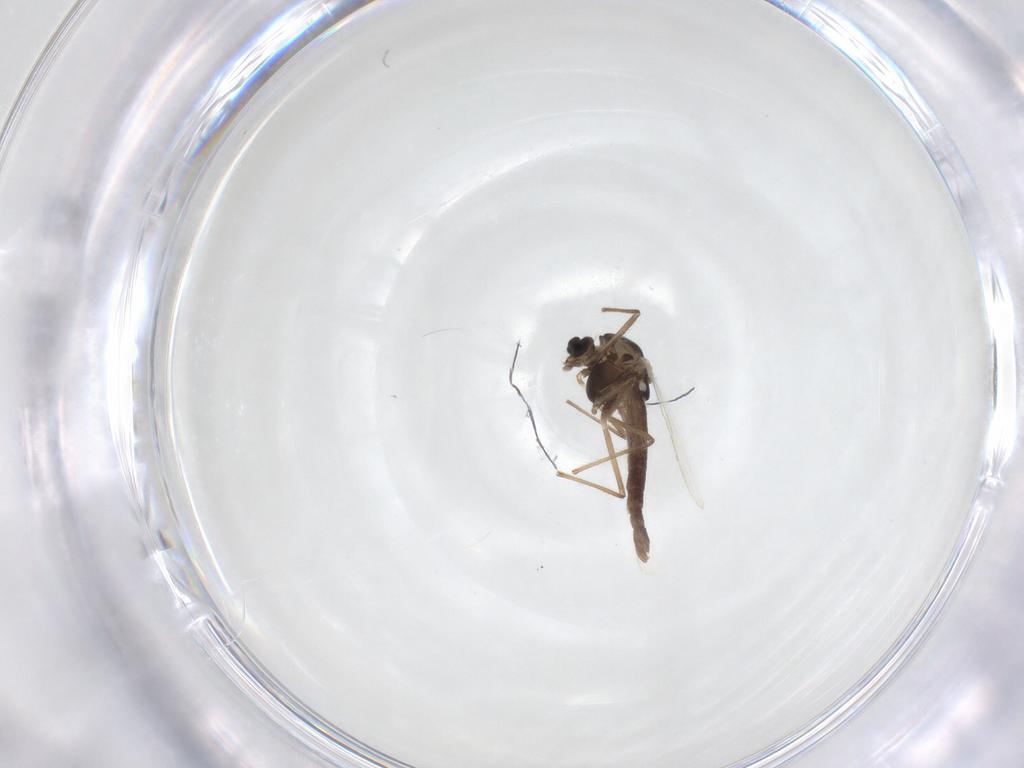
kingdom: Animalia
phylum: Arthropoda
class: Insecta
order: Diptera
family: Chironomidae
